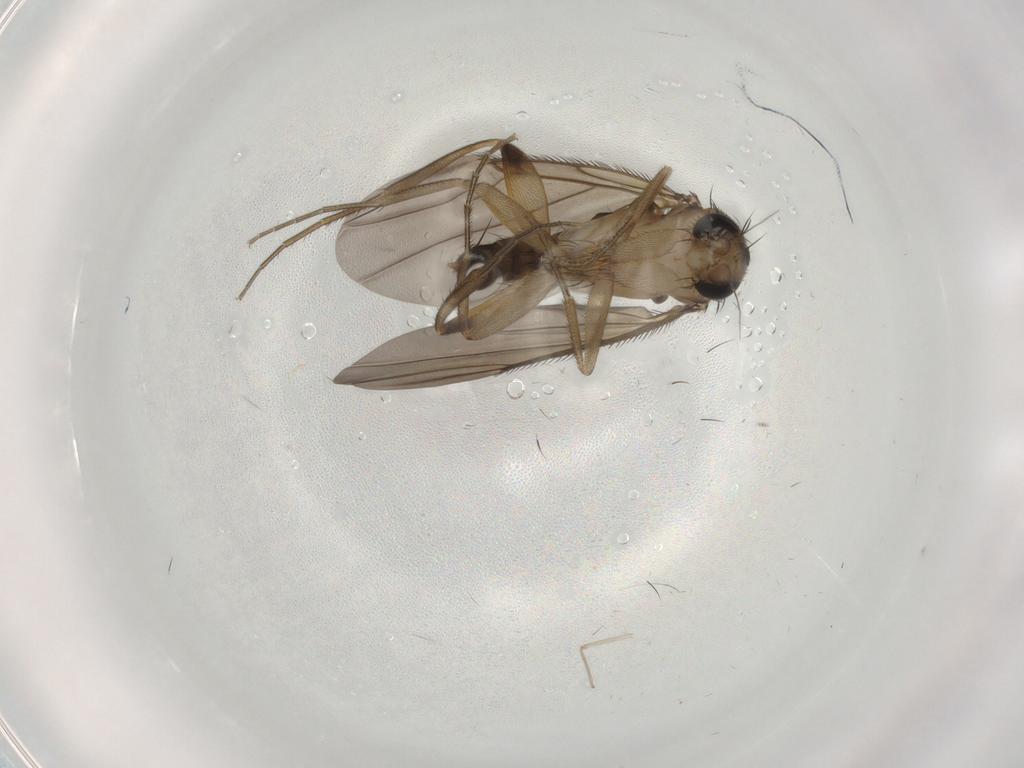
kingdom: Animalia
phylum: Arthropoda
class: Insecta
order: Diptera
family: Phoridae
